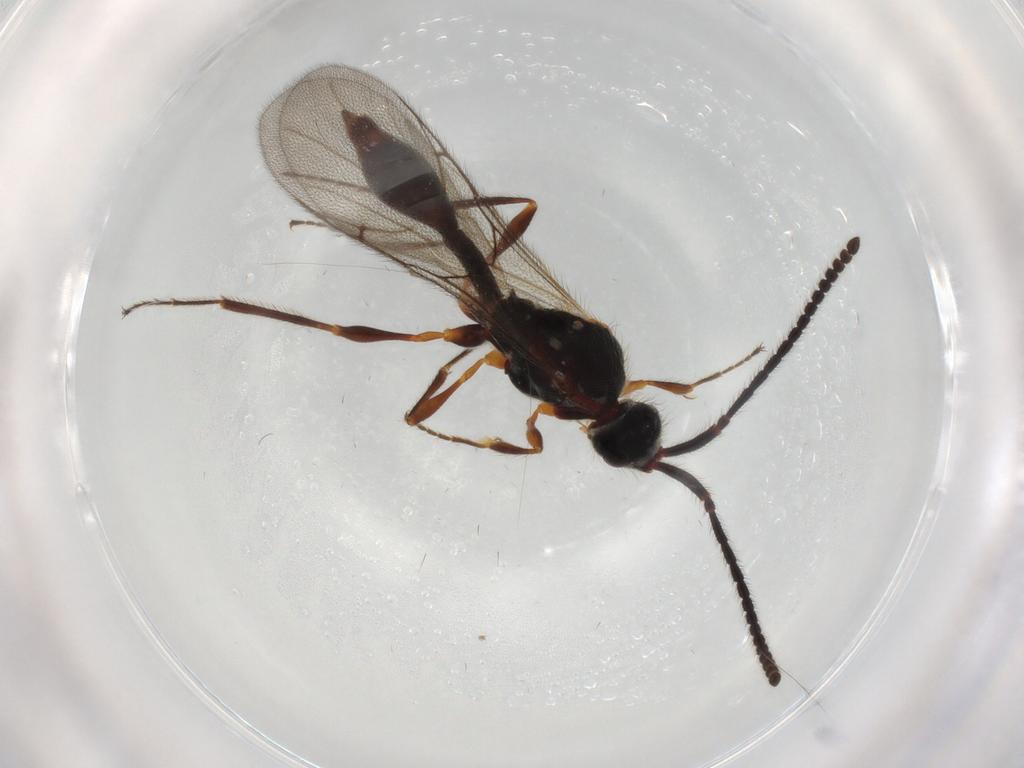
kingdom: Animalia
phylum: Arthropoda
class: Insecta
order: Hymenoptera
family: Diapriidae
